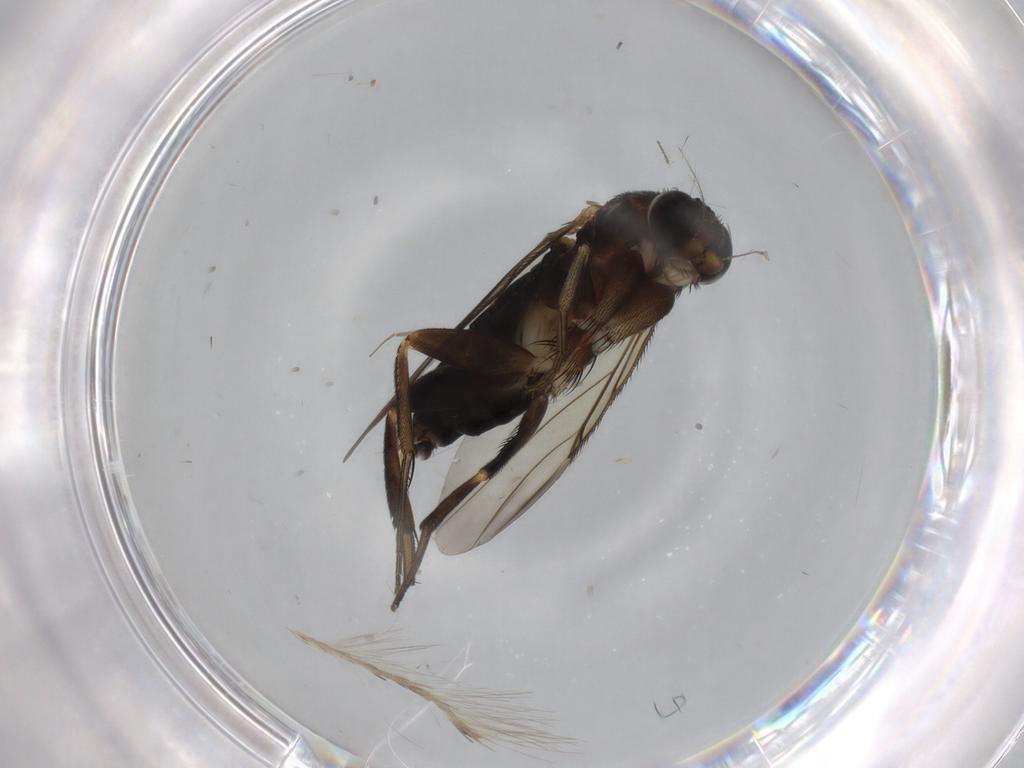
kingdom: Animalia
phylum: Arthropoda
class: Insecta
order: Diptera
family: Phoridae
